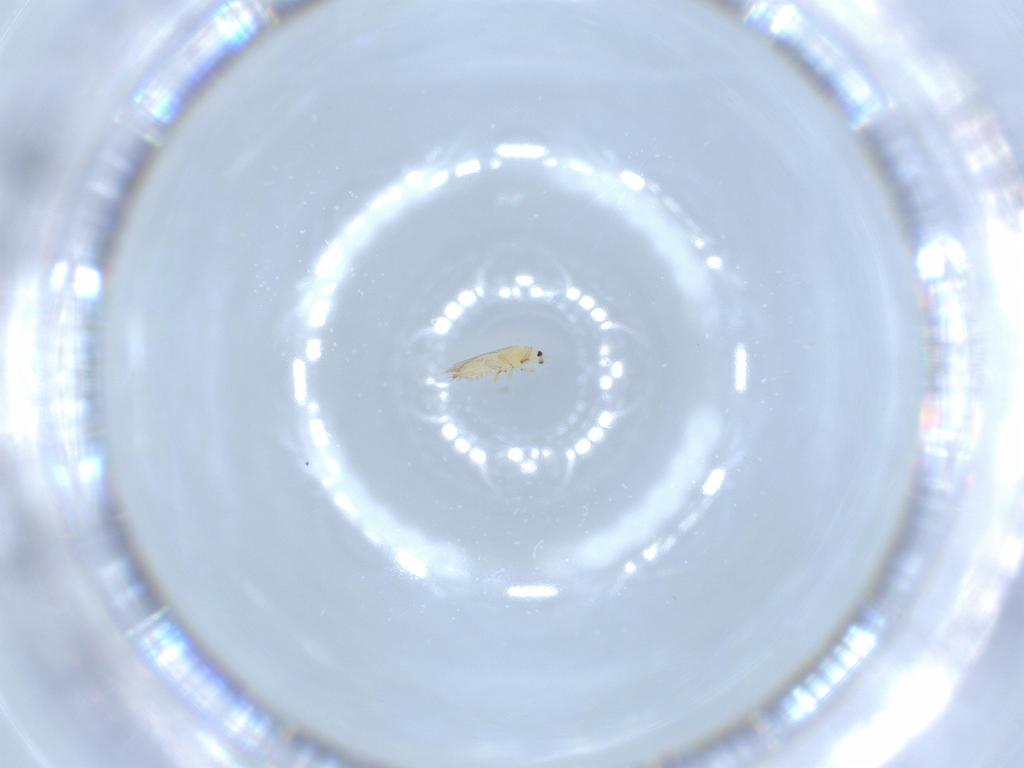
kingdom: Animalia
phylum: Arthropoda
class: Insecta
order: Thysanoptera
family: Thripidae
